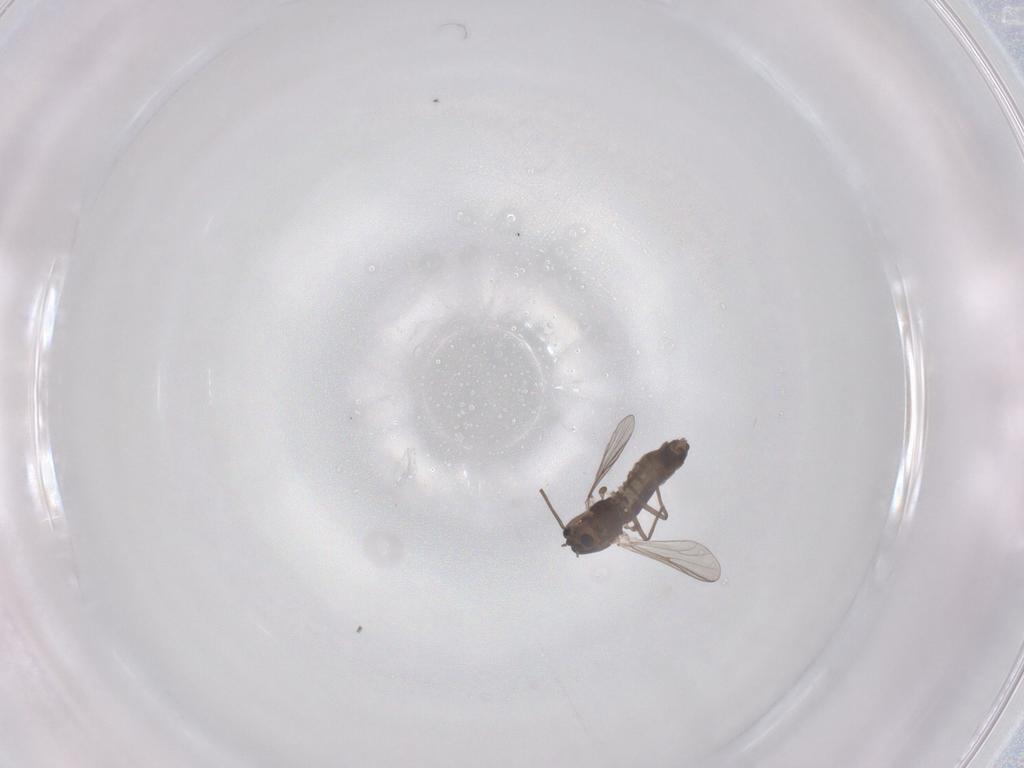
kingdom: Animalia
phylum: Arthropoda
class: Insecta
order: Diptera
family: Chironomidae
